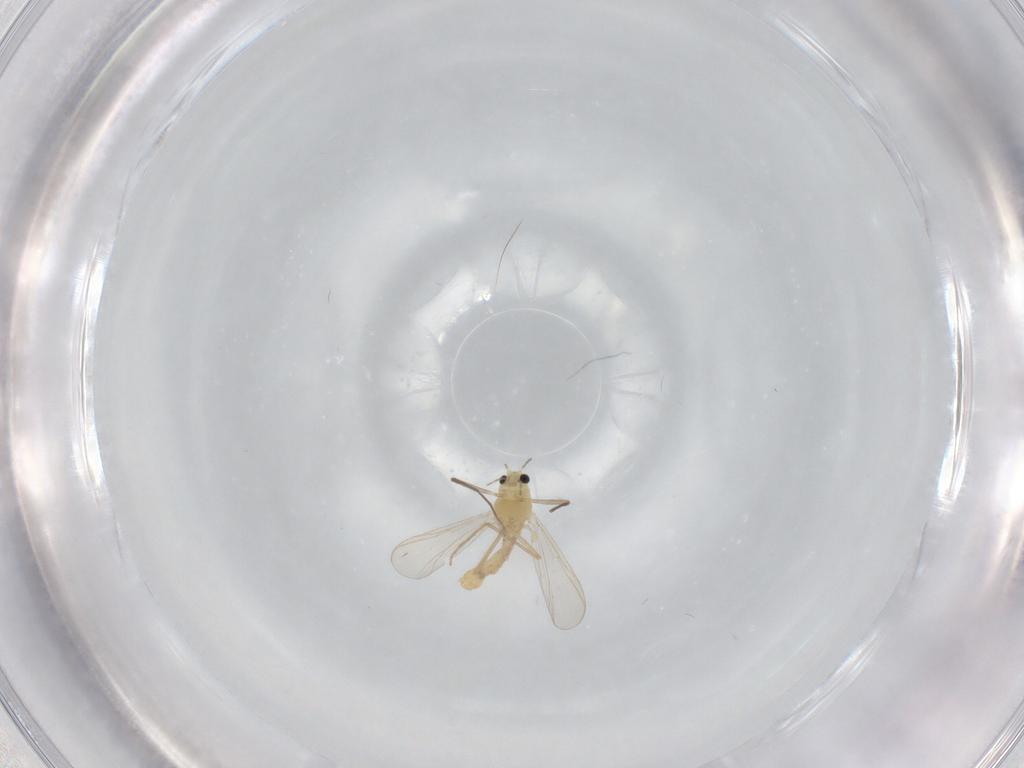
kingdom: Animalia
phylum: Arthropoda
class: Insecta
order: Diptera
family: Chironomidae
